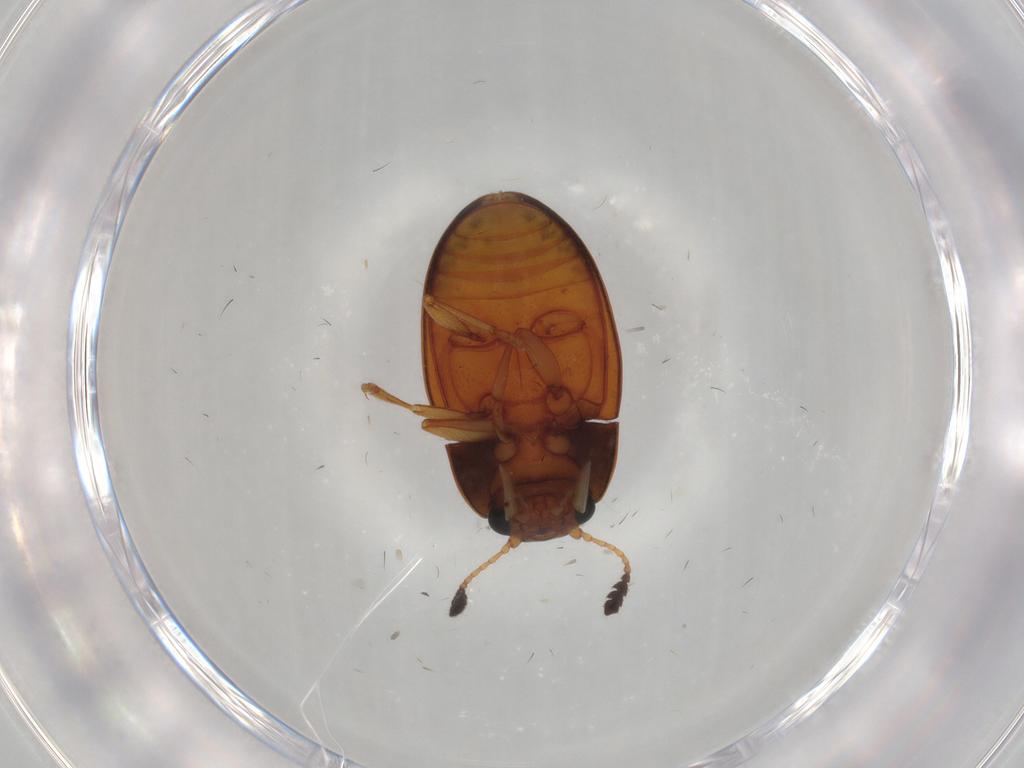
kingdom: Animalia
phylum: Arthropoda
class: Insecta
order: Coleoptera
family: Erotylidae
